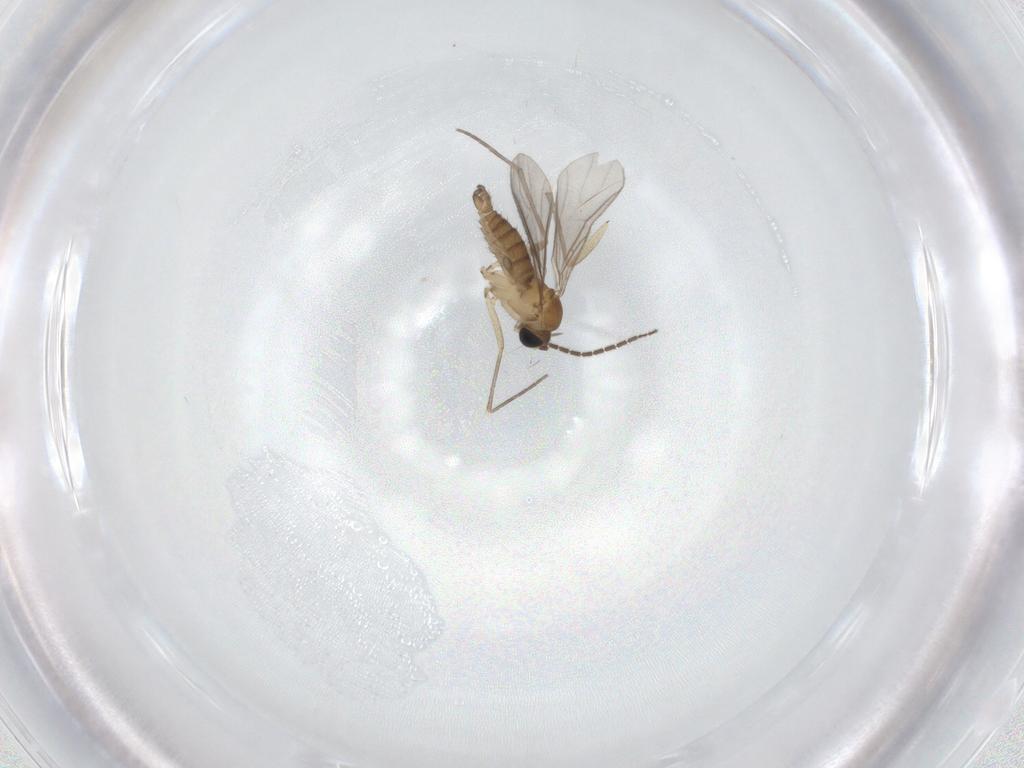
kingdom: Animalia
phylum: Arthropoda
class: Insecta
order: Diptera
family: Sciaridae
